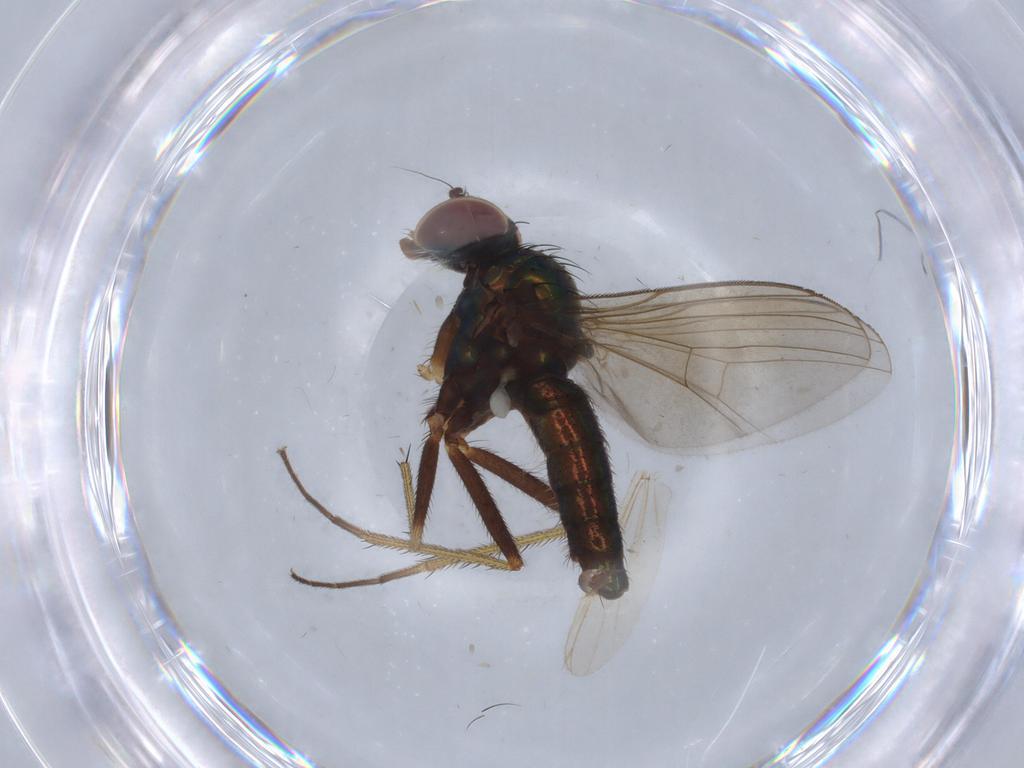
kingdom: Animalia
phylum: Arthropoda
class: Insecta
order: Diptera
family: Dolichopodidae
